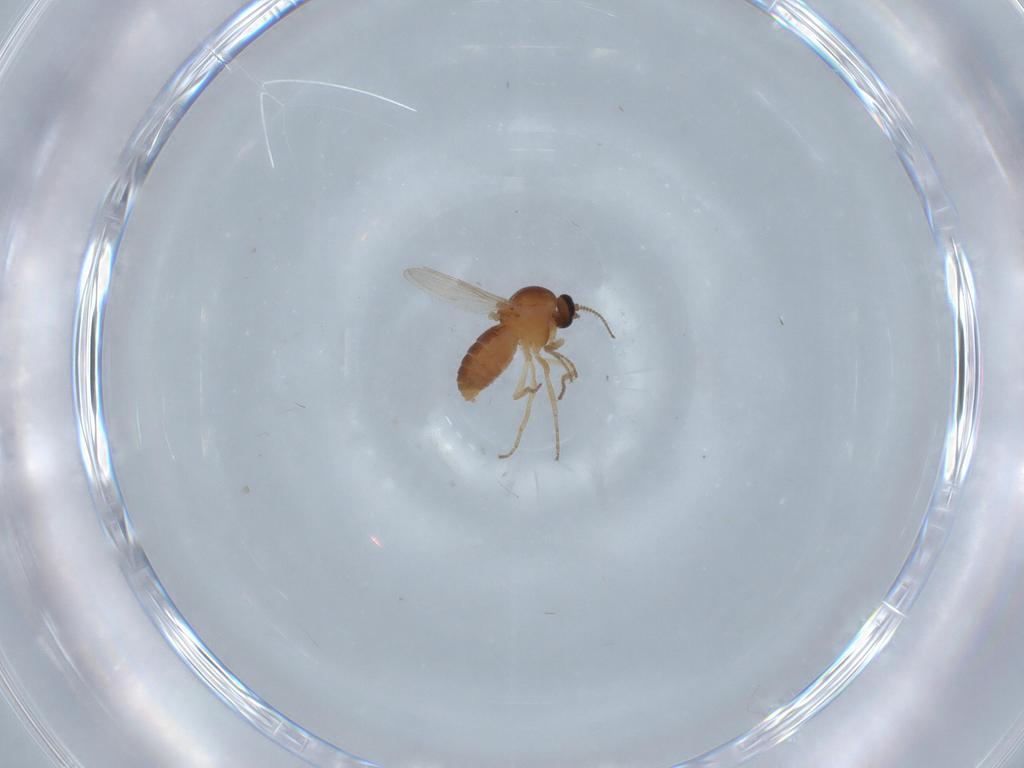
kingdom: Animalia
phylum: Arthropoda
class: Insecta
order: Diptera
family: Ceratopogonidae
